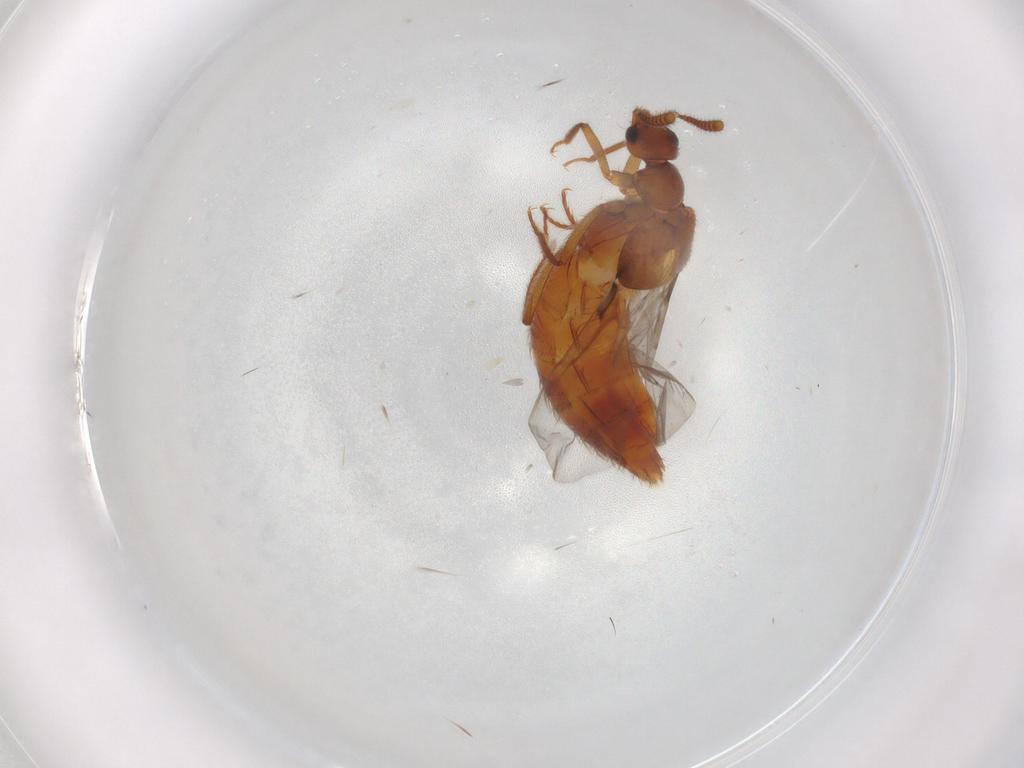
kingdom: Animalia
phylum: Arthropoda
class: Insecta
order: Coleoptera
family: Staphylinidae
